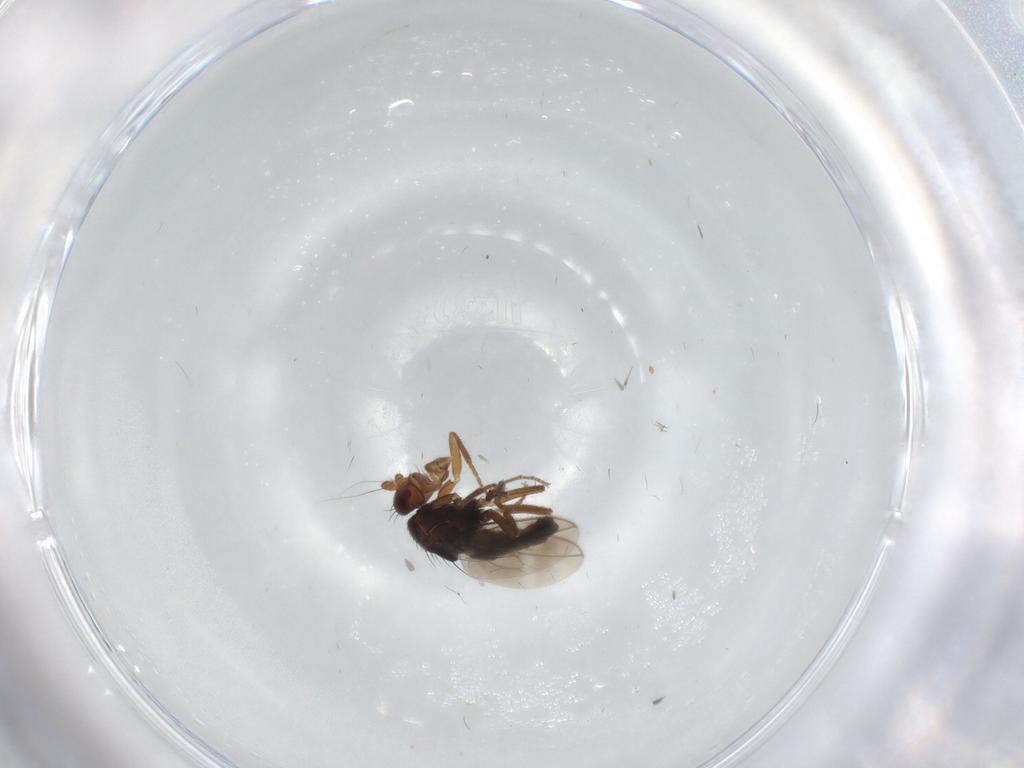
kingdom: Animalia
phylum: Arthropoda
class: Insecta
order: Diptera
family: Sphaeroceridae
